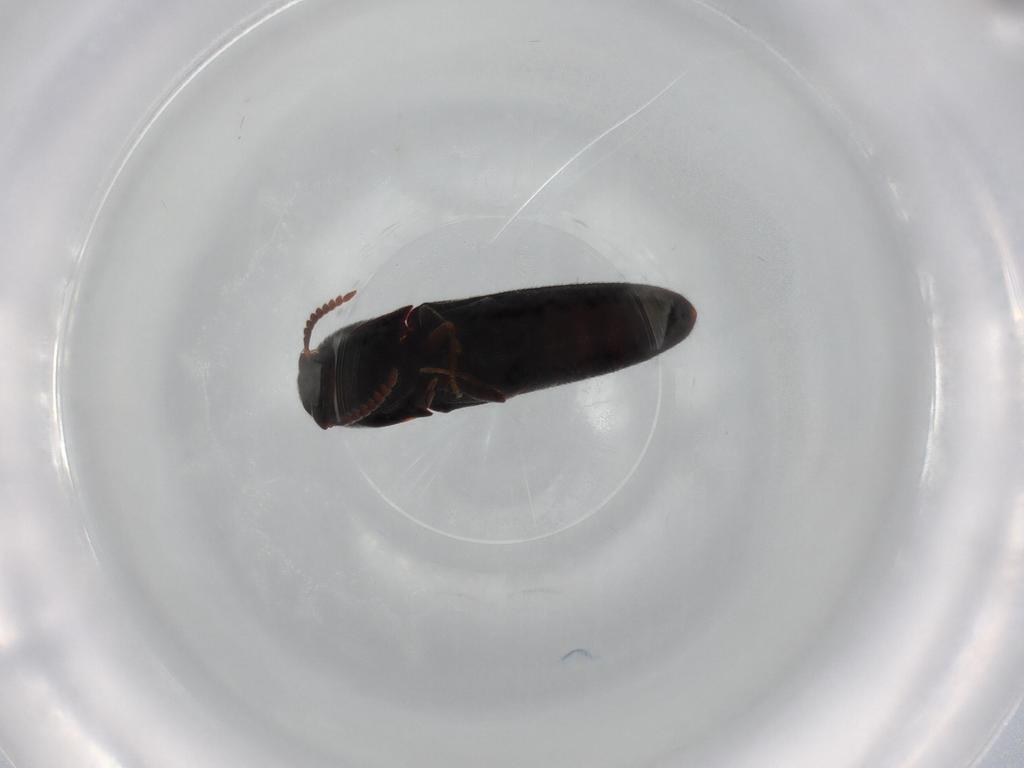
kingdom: Animalia
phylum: Arthropoda
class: Insecta
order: Coleoptera
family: Eucnemidae
